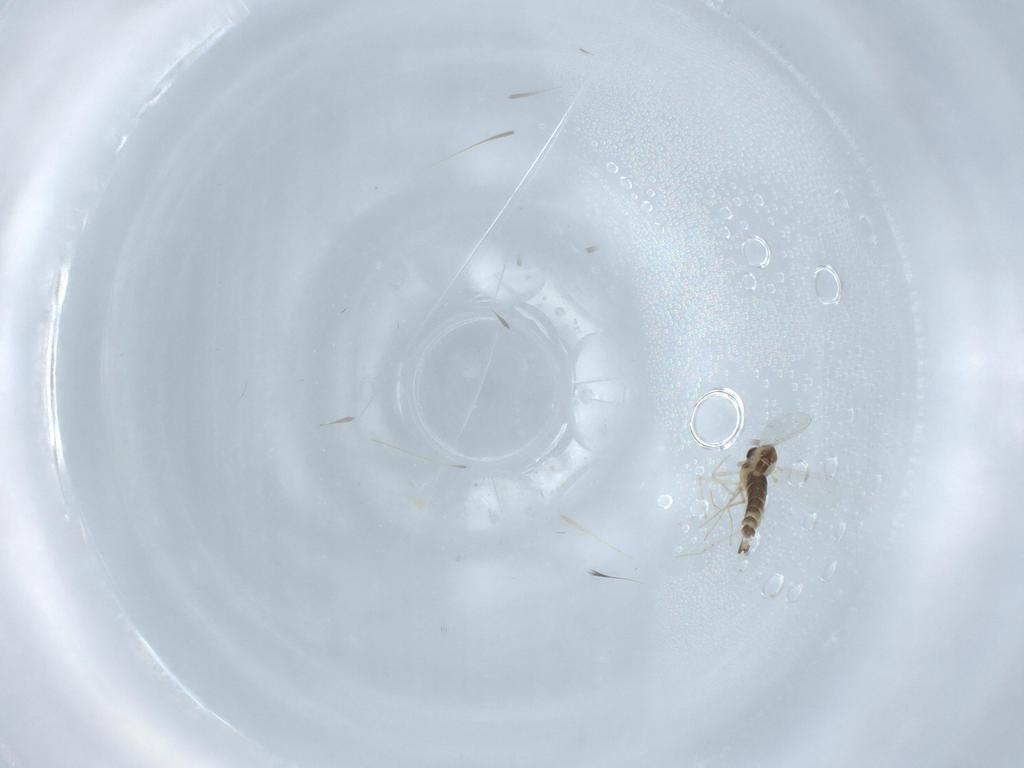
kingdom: Animalia
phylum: Arthropoda
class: Insecta
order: Diptera
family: Chironomidae
